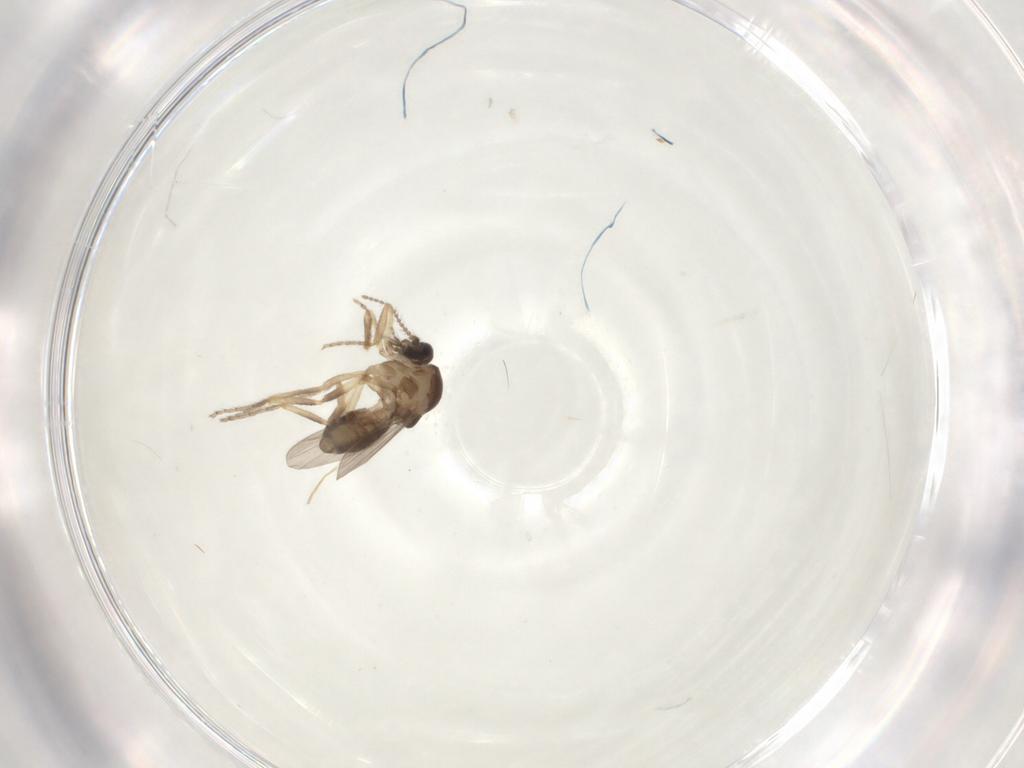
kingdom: Animalia
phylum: Arthropoda
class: Insecta
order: Diptera
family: Ceratopogonidae
